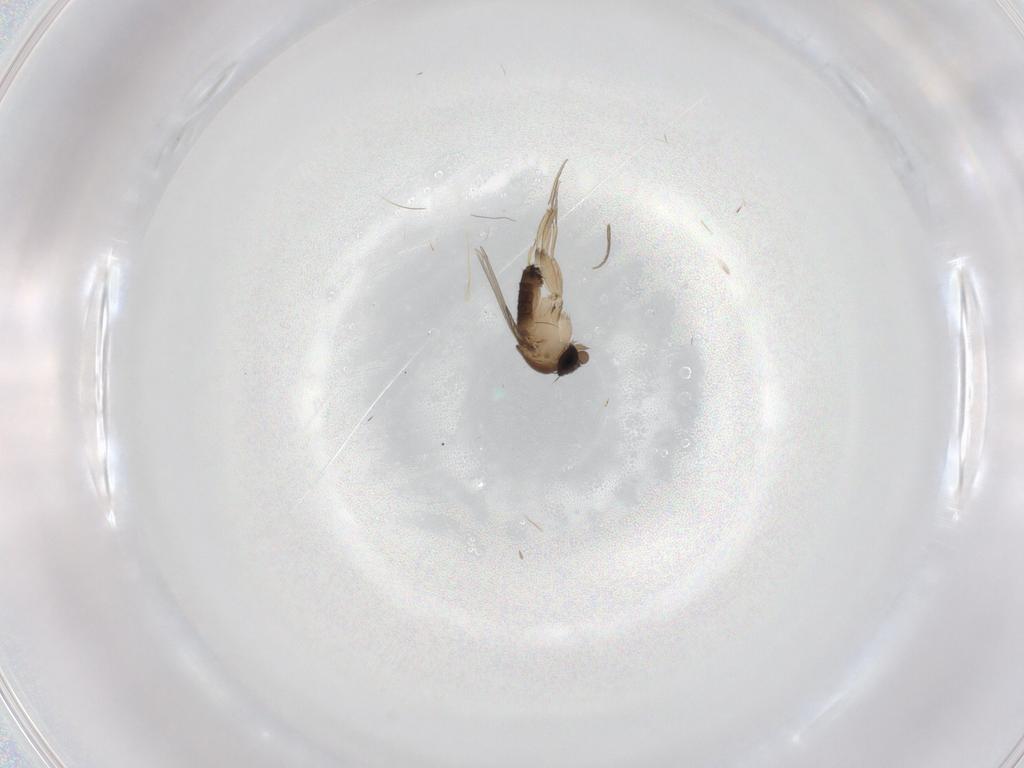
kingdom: Animalia
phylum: Arthropoda
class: Insecta
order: Diptera
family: Phoridae
